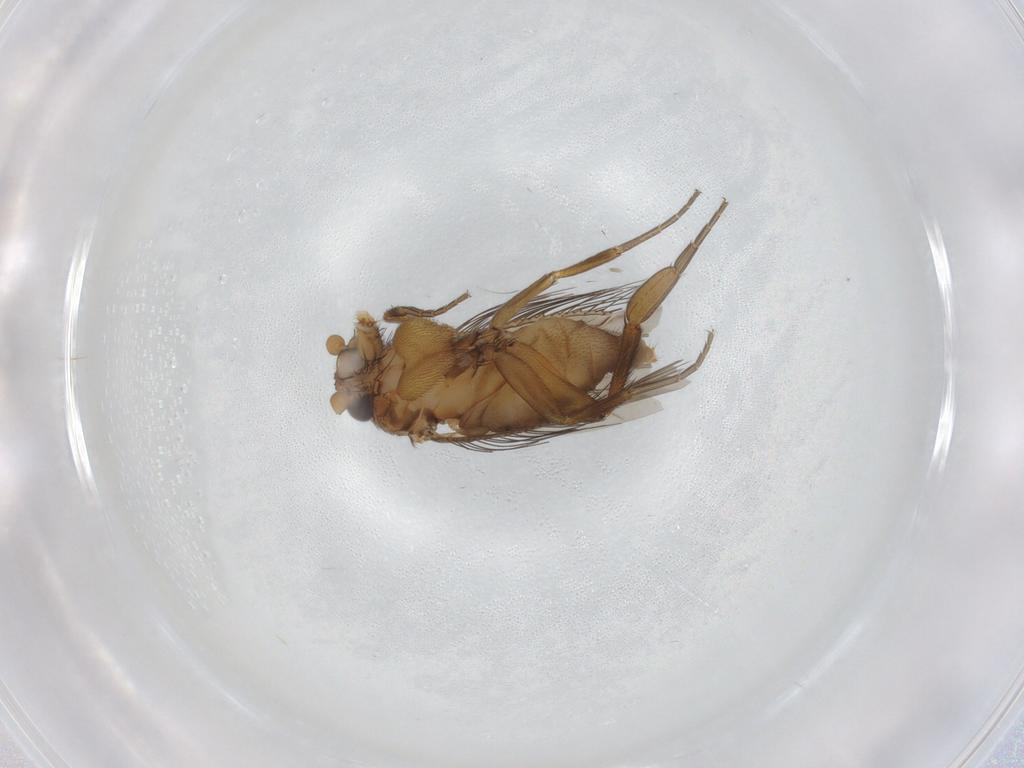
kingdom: Animalia
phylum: Arthropoda
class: Insecta
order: Diptera
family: Phoridae
